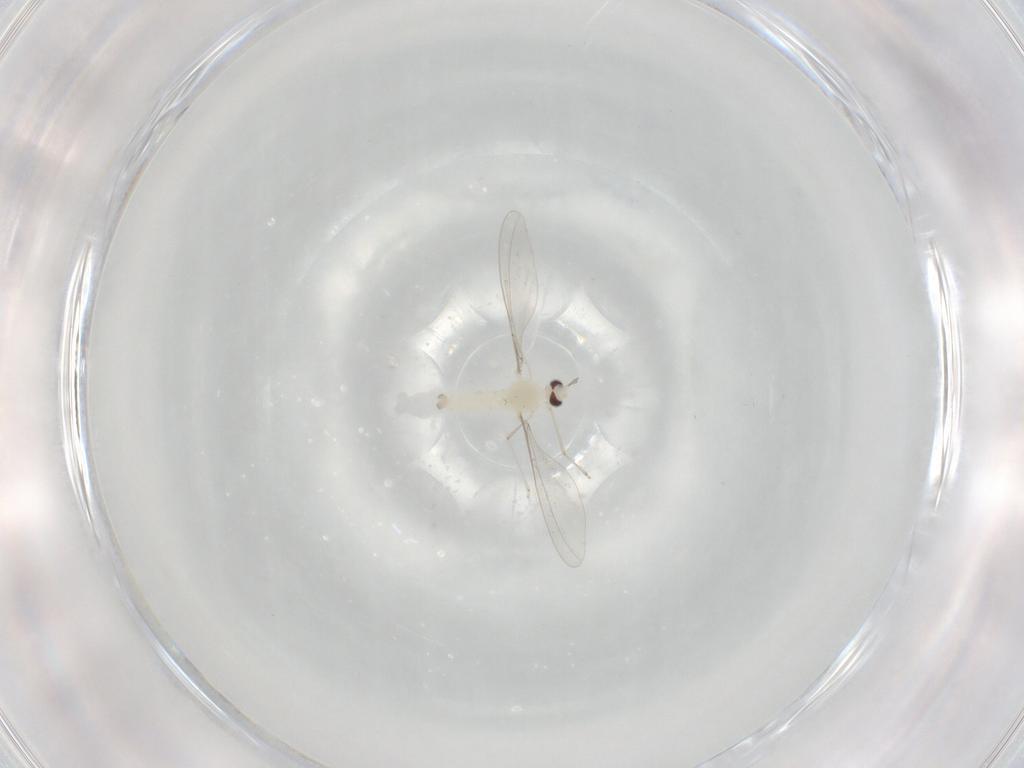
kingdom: Animalia
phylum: Arthropoda
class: Insecta
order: Diptera
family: Cecidomyiidae
